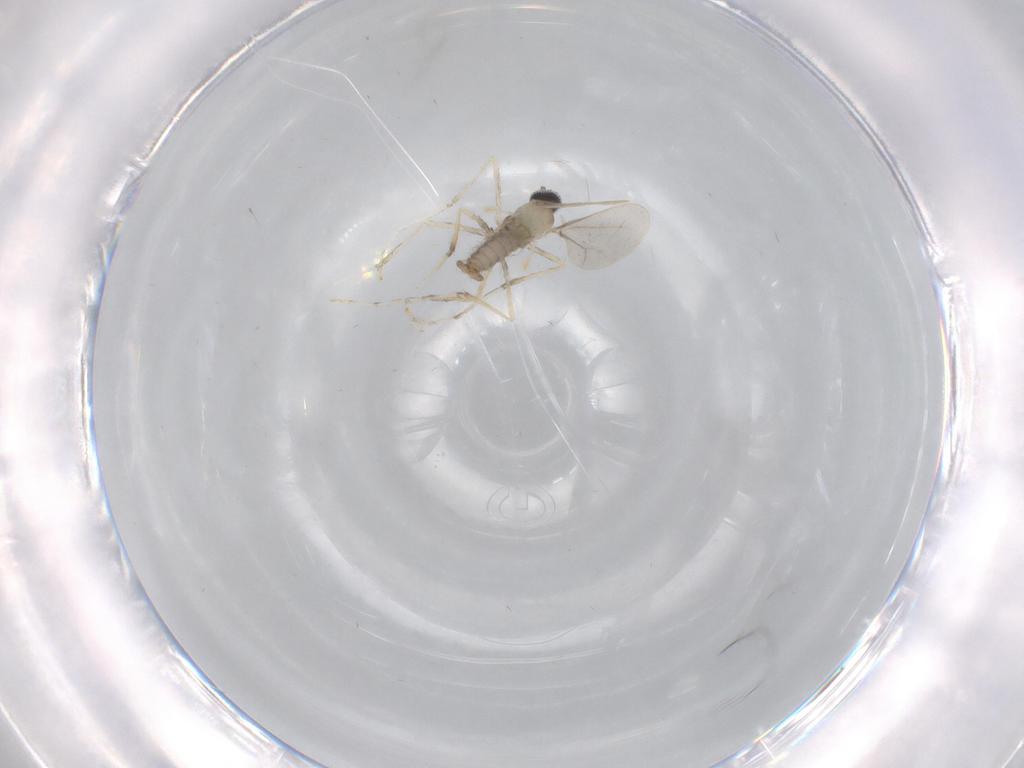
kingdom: Animalia
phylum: Arthropoda
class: Insecta
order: Diptera
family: Cecidomyiidae
